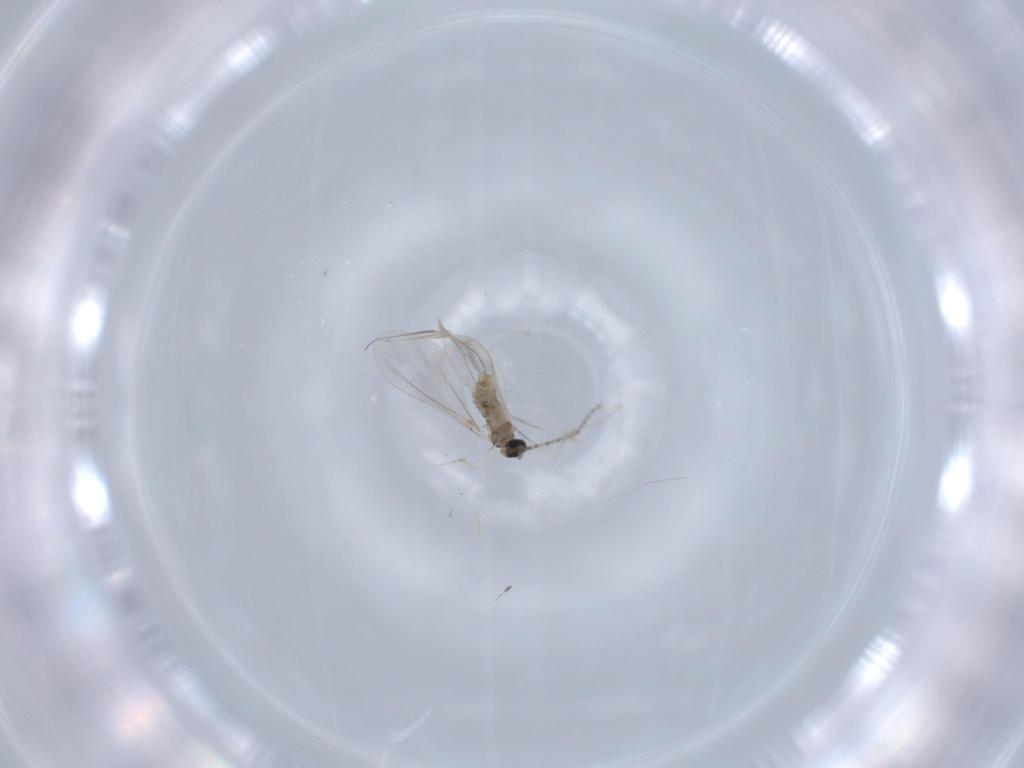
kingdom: Animalia
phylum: Arthropoda
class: Insecta
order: Diptera
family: Cecidomyiidae
